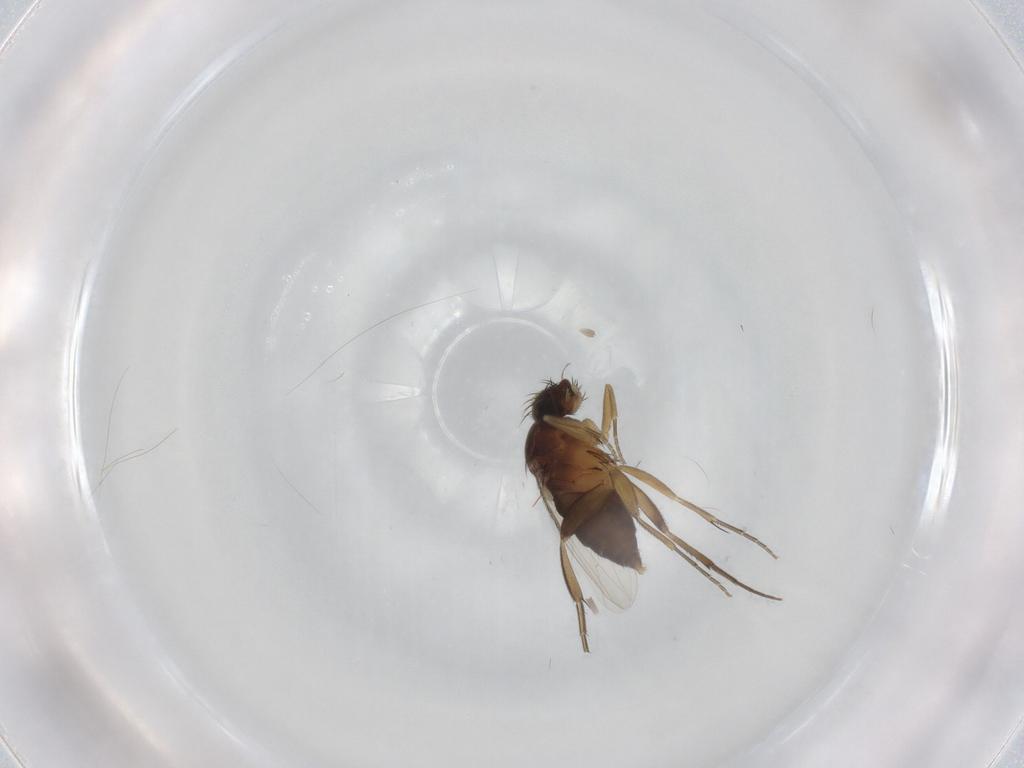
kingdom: Animalia
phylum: Arthropoda
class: Insecta
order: Diptera
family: Phoridae
